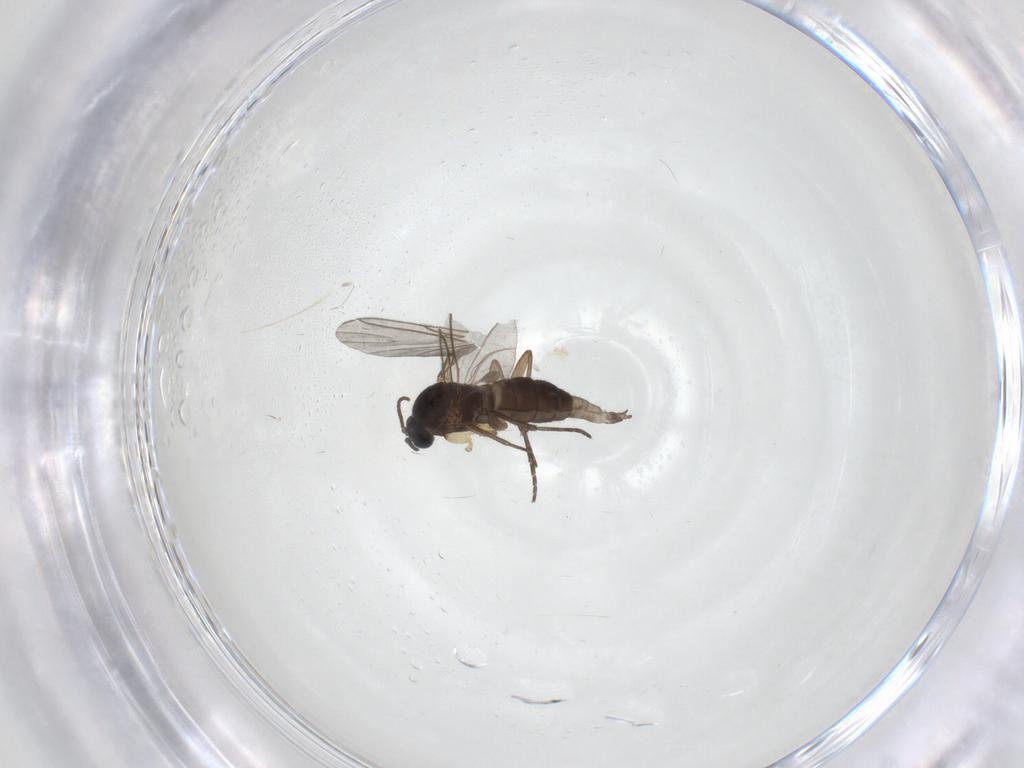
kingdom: Animalia
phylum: Arthropoda
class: Insecta
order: Diptera
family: Sciaridae
